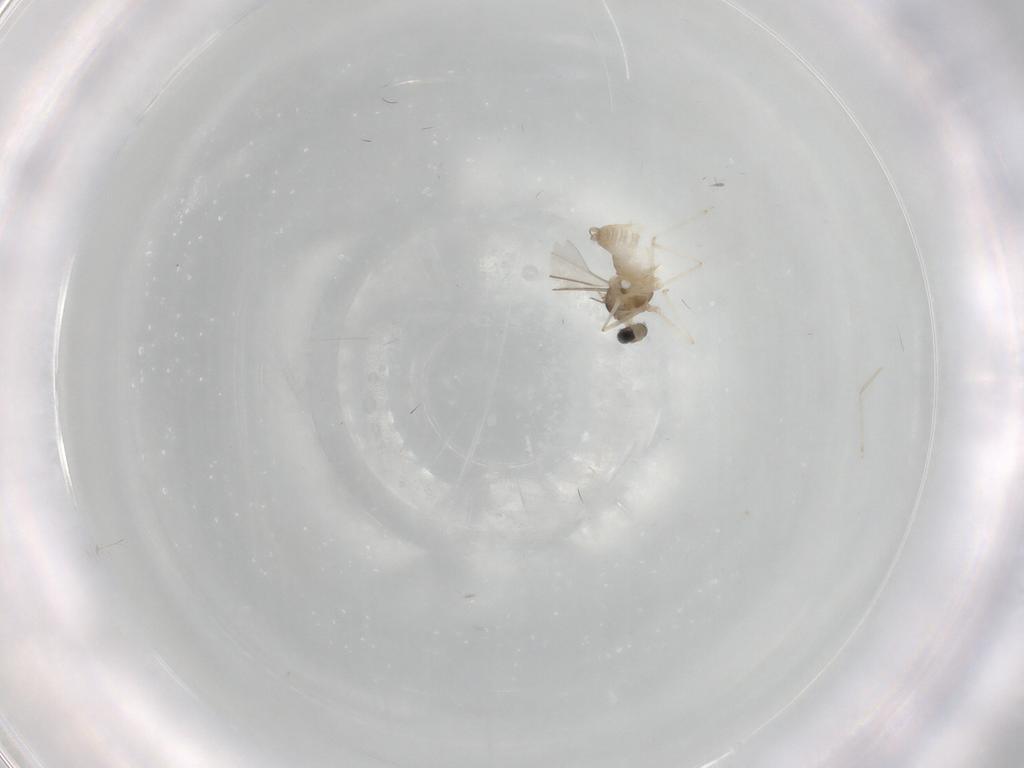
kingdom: Animalia
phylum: Arthropoda
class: Insecta
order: Diptera
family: Cecidomyiidae
